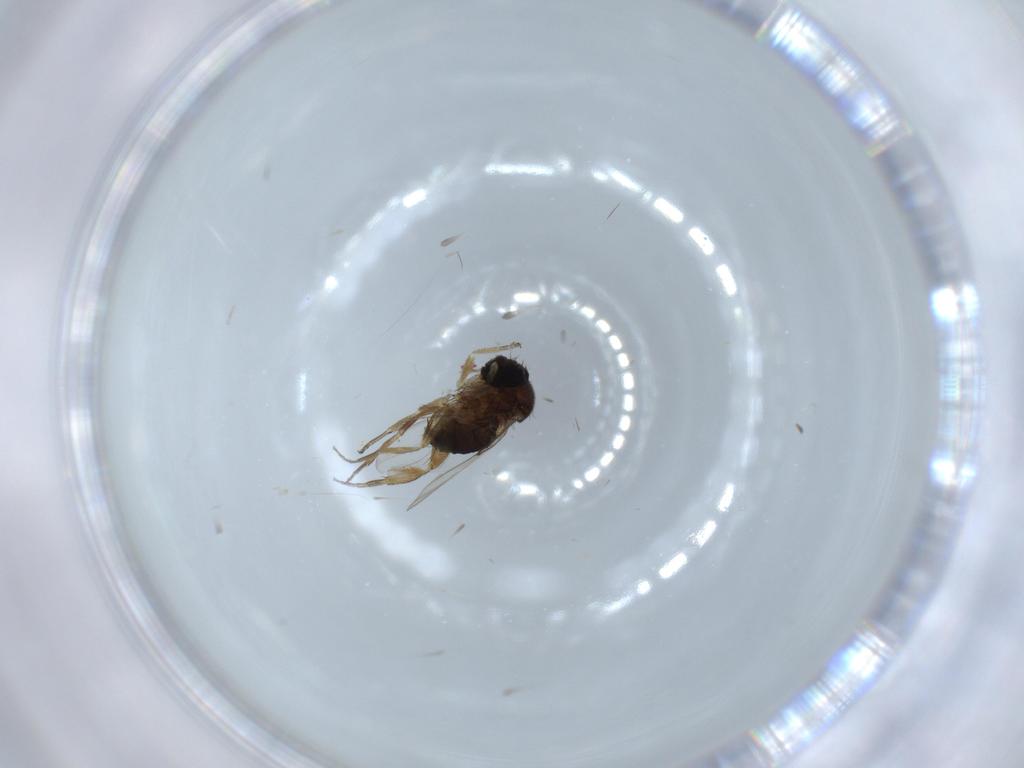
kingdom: Animalia
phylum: Arthropoda
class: Insecta
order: Diptera
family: Phoridae
